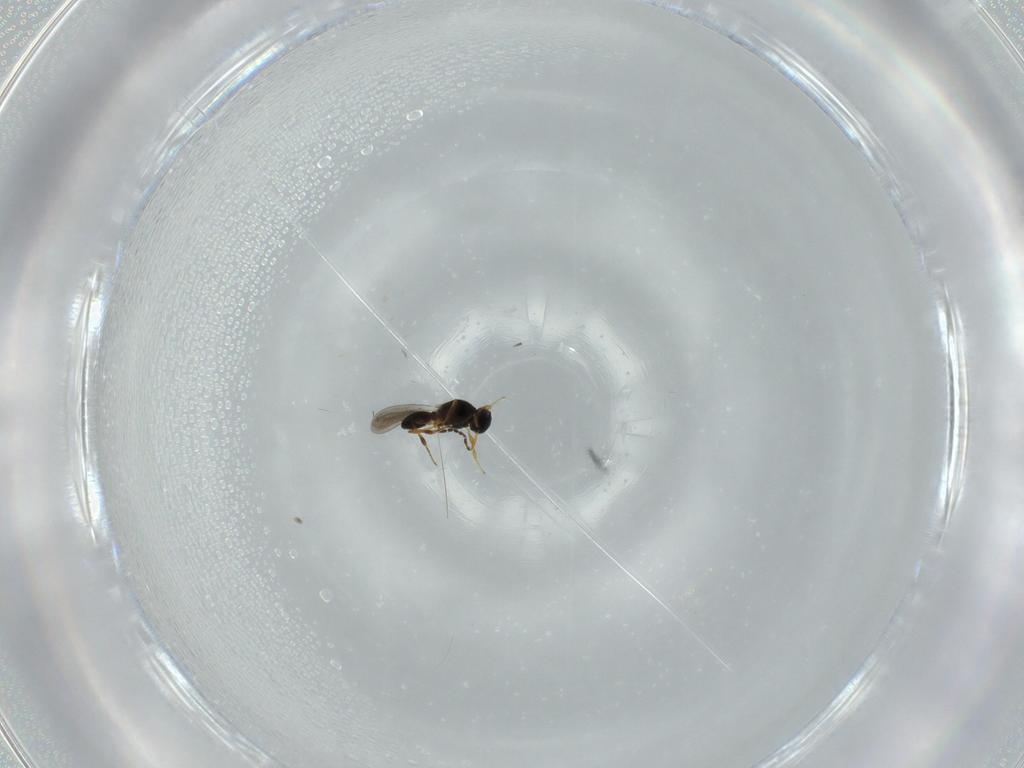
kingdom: Animalia
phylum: Arthropoda
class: Insecta
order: Hymenoptera
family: Platygastridae
